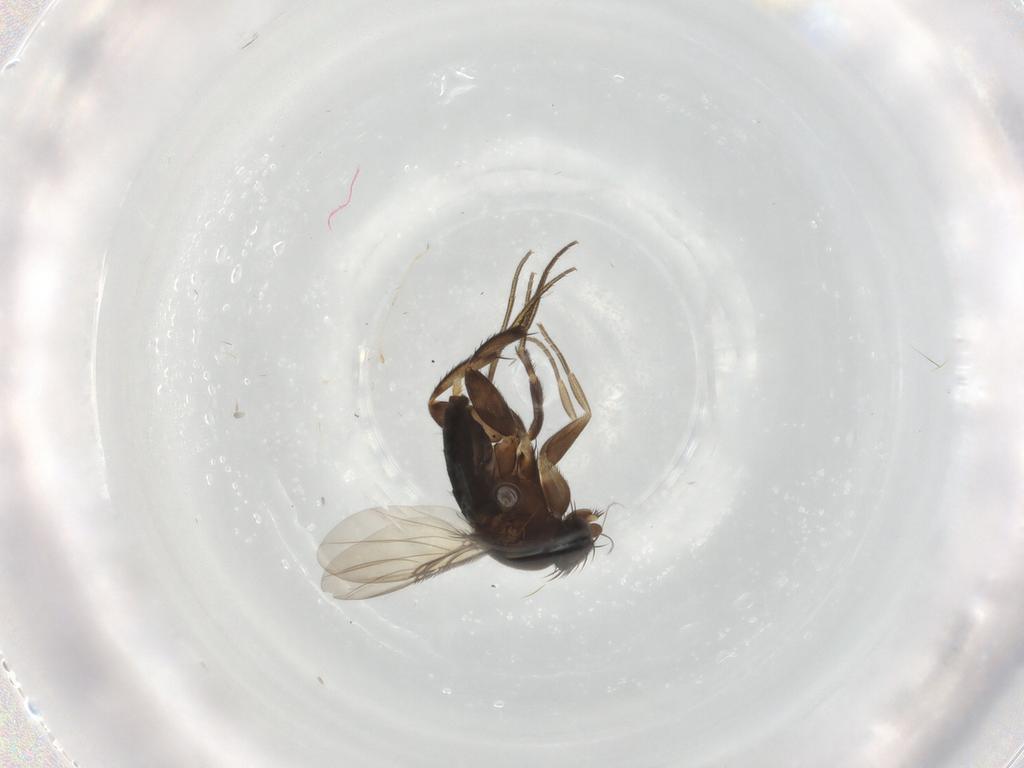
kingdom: Animalia
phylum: Arthropoda
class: Insecta
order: Diptera
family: Phoridae
